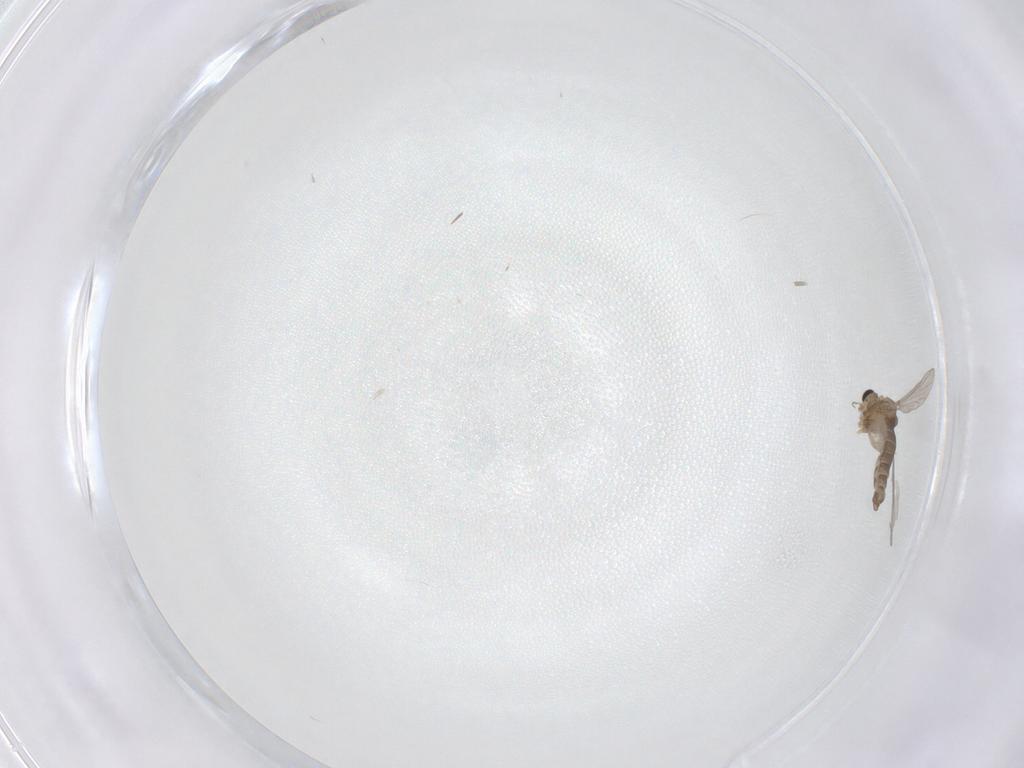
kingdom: Animalia
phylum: Arthropoda
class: Insecta
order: Diptera
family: Chironomidae
